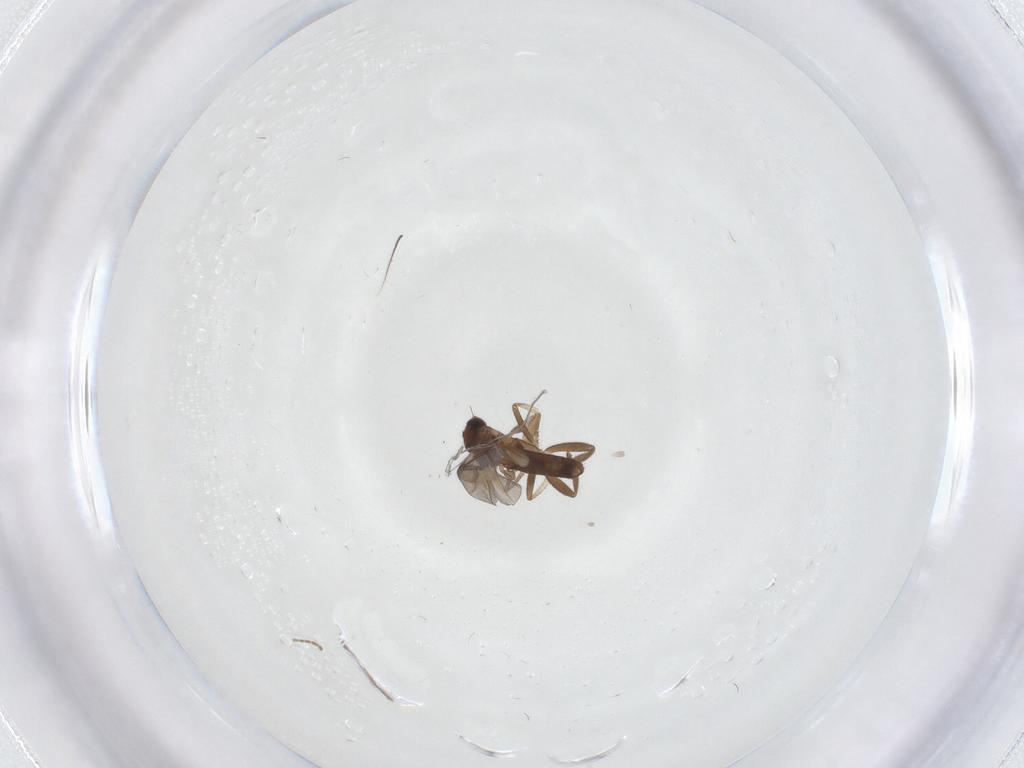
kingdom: Animalia
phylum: Arthropoda
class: Insecta
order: Diptera
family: Phoridae
